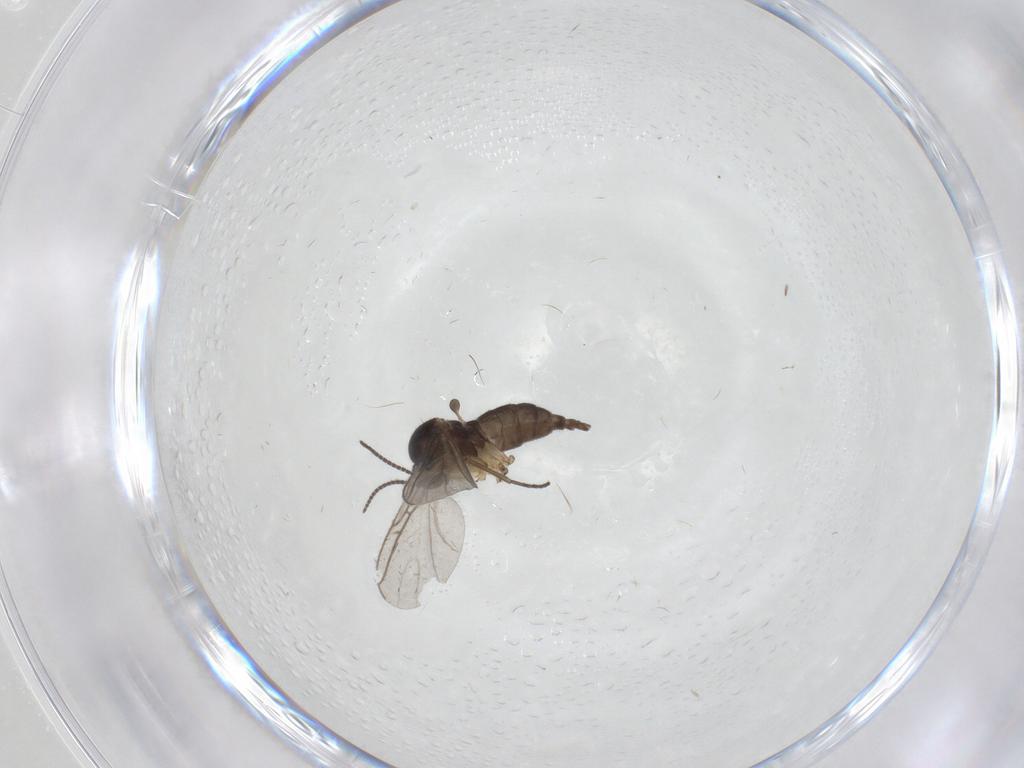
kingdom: Animalia
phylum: Arthropoda
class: Insecta
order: Diptera
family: Sciaridae
